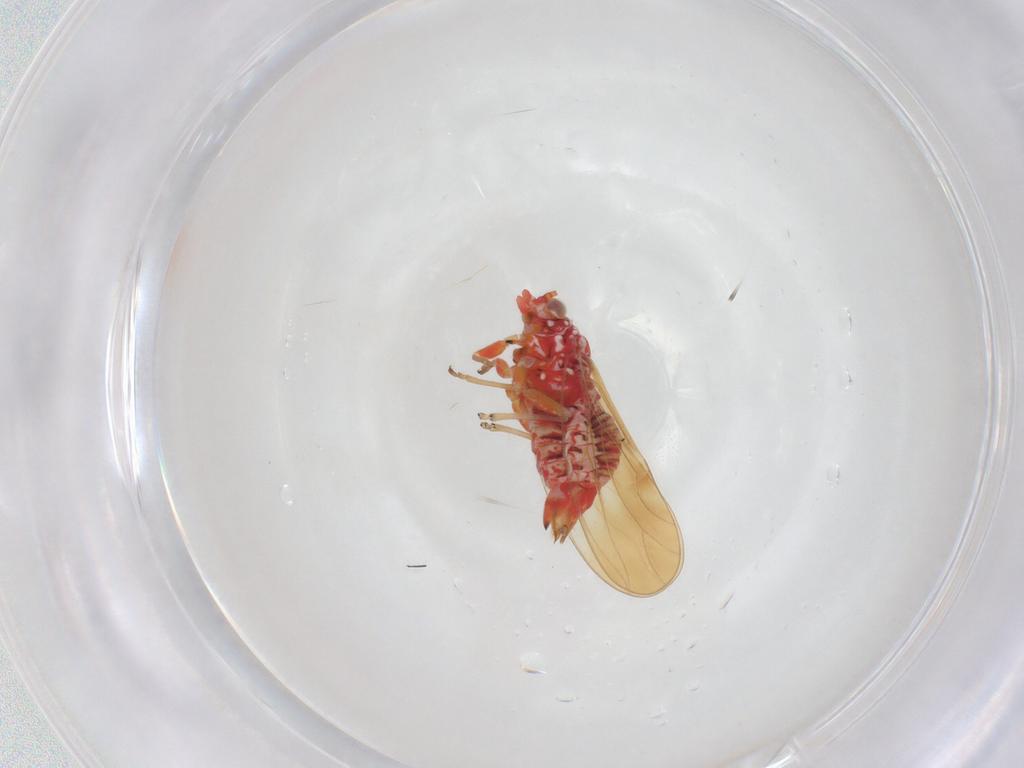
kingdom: Animalia
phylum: Arthropoda
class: Insecta
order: Hemiptera
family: Psyllidae
